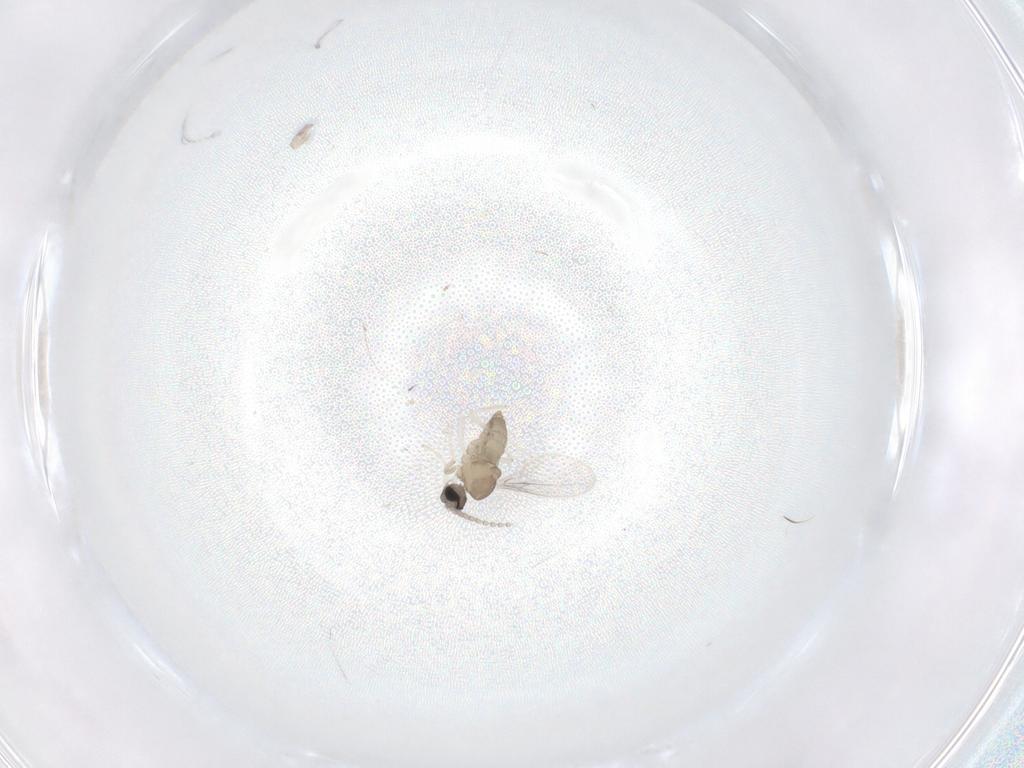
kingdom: Animalia
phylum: Arthropoda
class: Insecta
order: Diptera
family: Cecidomyiidae
